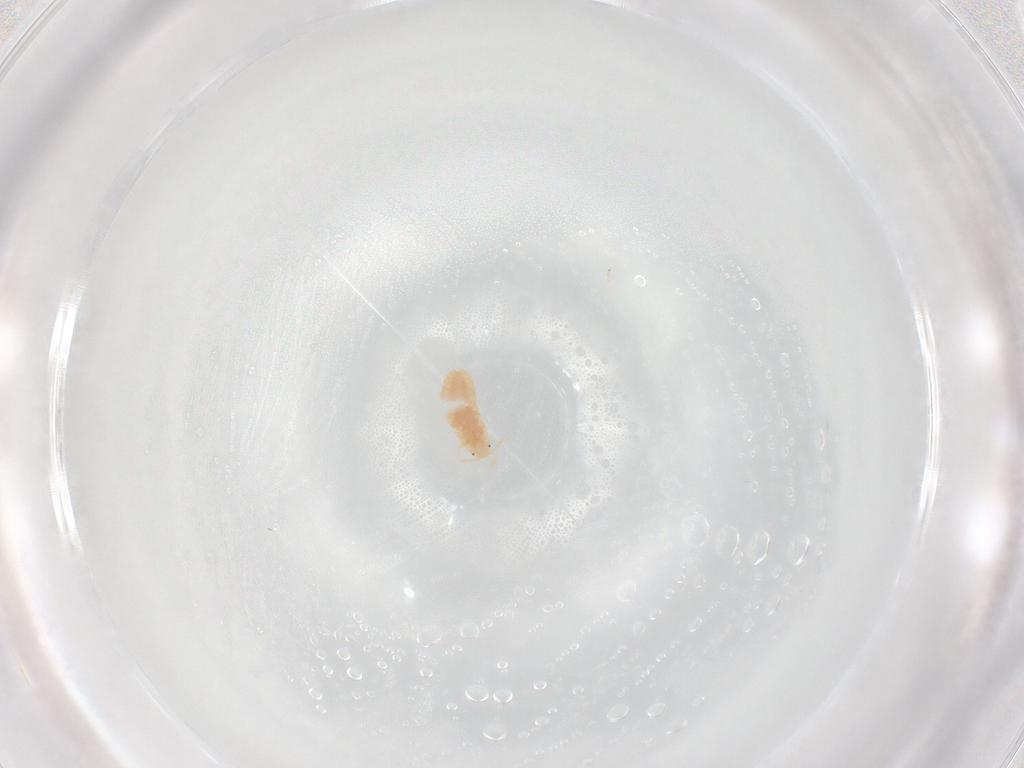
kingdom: Animalia
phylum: Arthropoda
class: Insecta
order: Hemiptera
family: Coccoidea_incertae_sedis
